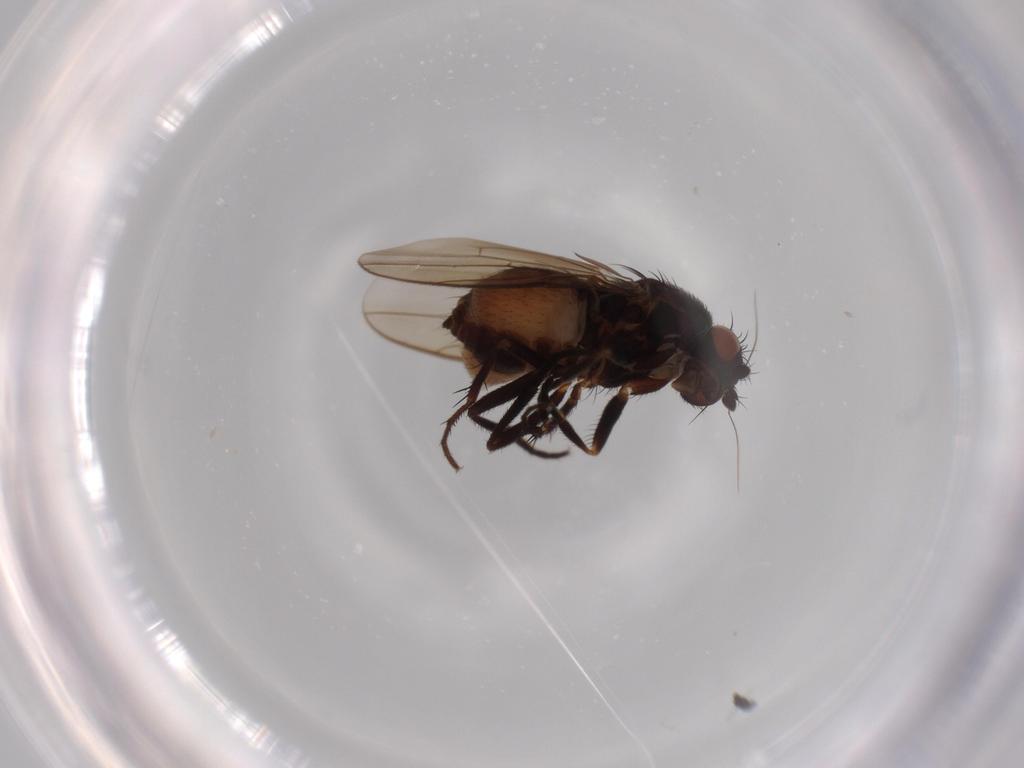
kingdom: Animalia
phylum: Arthropoda
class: Insecta
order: Diptera
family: Sphaeroceridae
